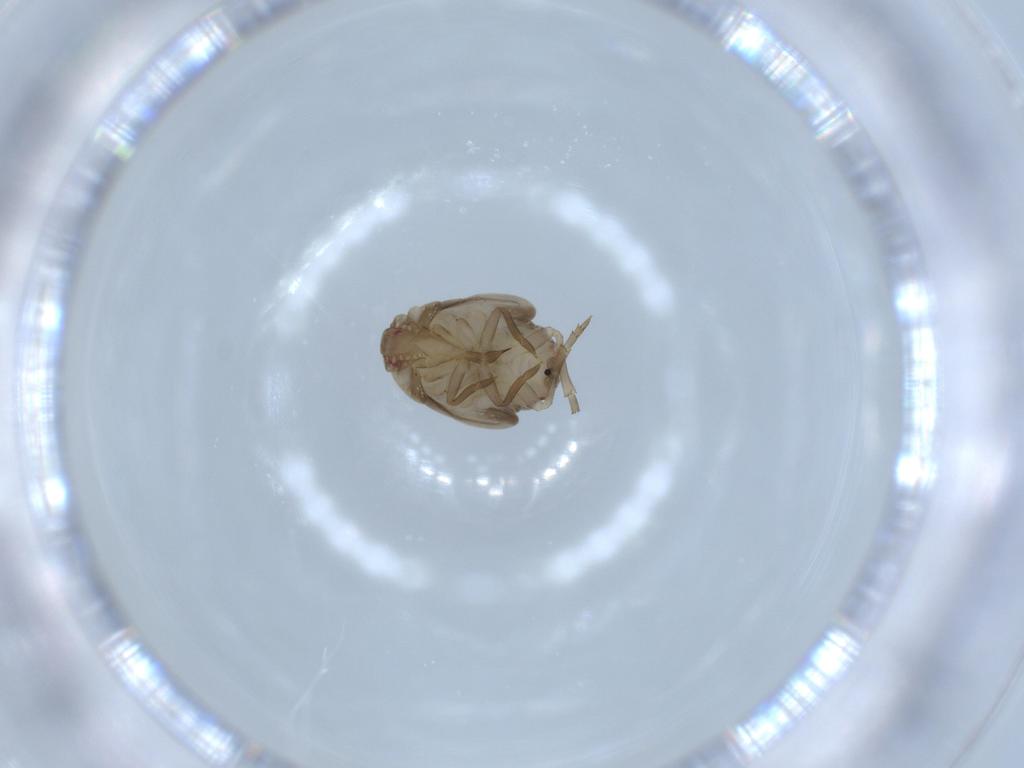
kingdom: Animalia
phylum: Arthropoda
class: Insecta
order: Hemiptera
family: Derbidae
